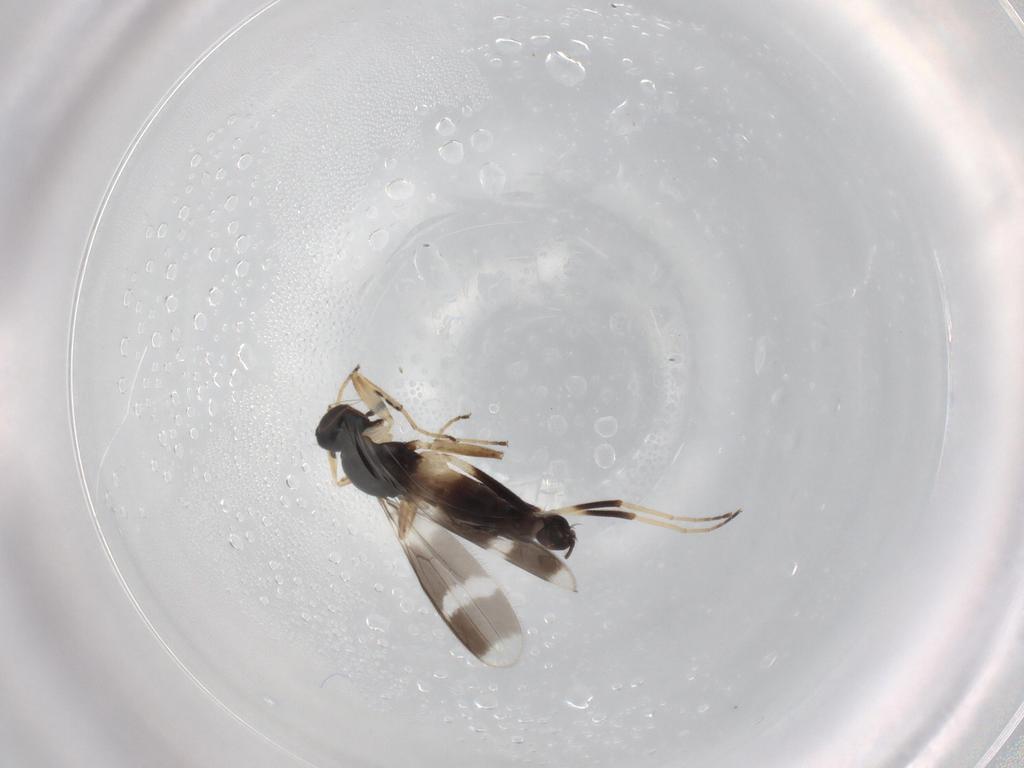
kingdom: Animalia
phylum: Arthropoda
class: Insecta
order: Diptera
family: Hybotidae
